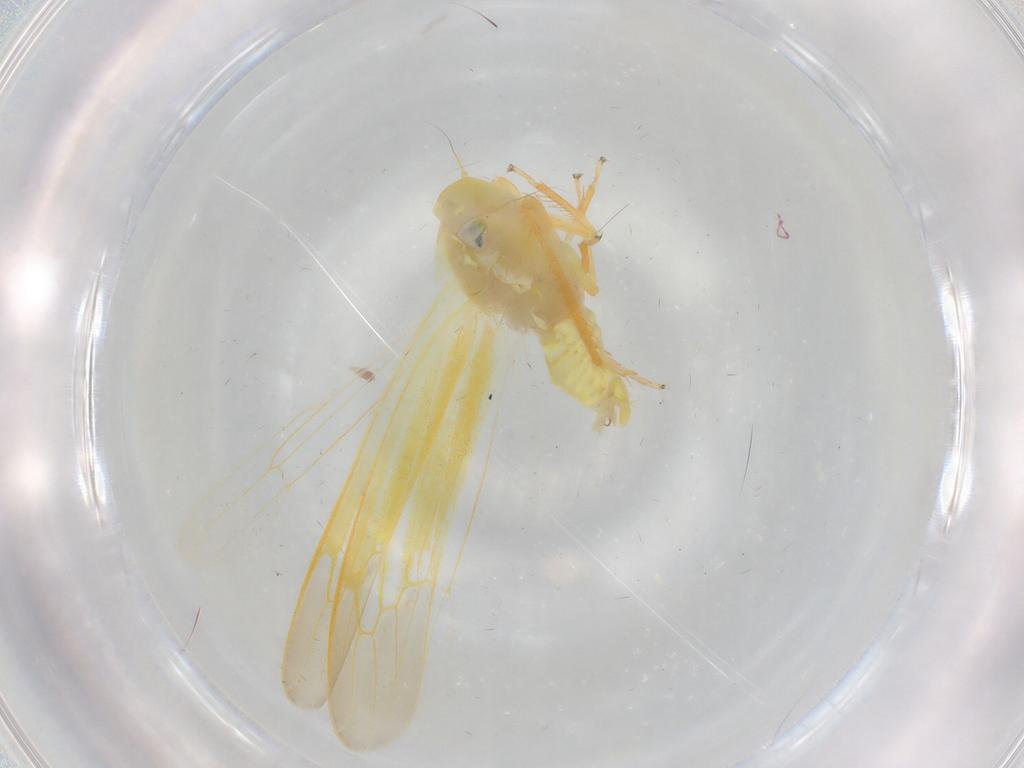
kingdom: Animalia
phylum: Arthropoda
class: Insecta
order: Hemiptera
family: Cicadellidae
